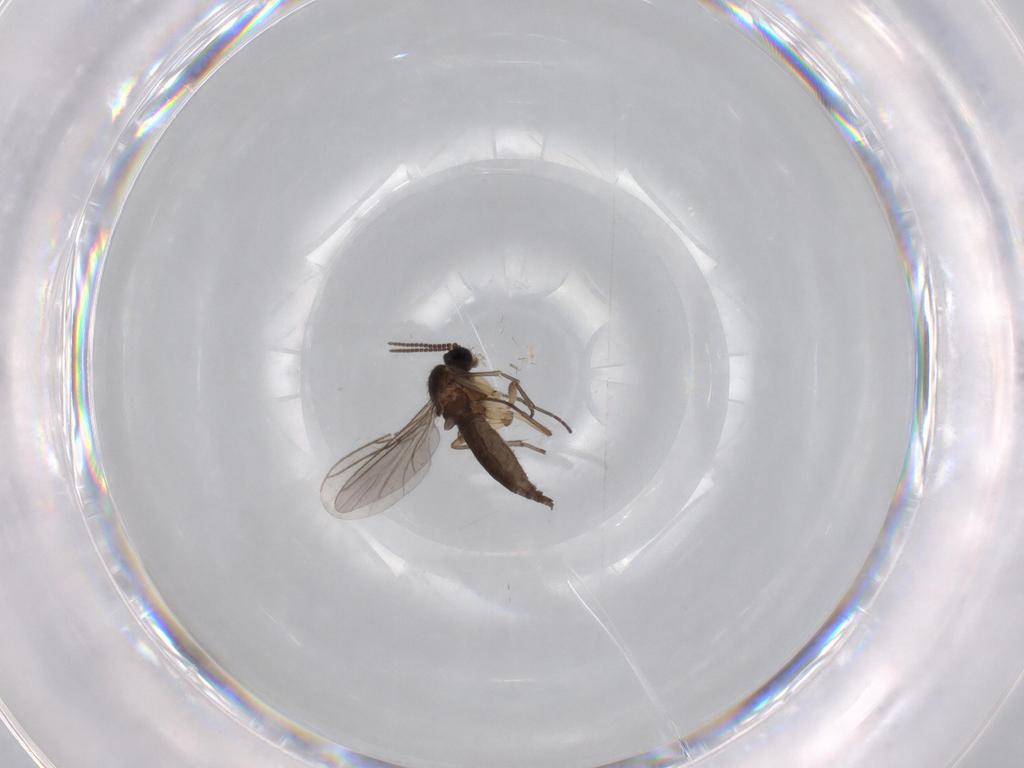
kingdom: Animalia
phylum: Arthropoda
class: Insecta
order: Diptera
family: Sciaridae
